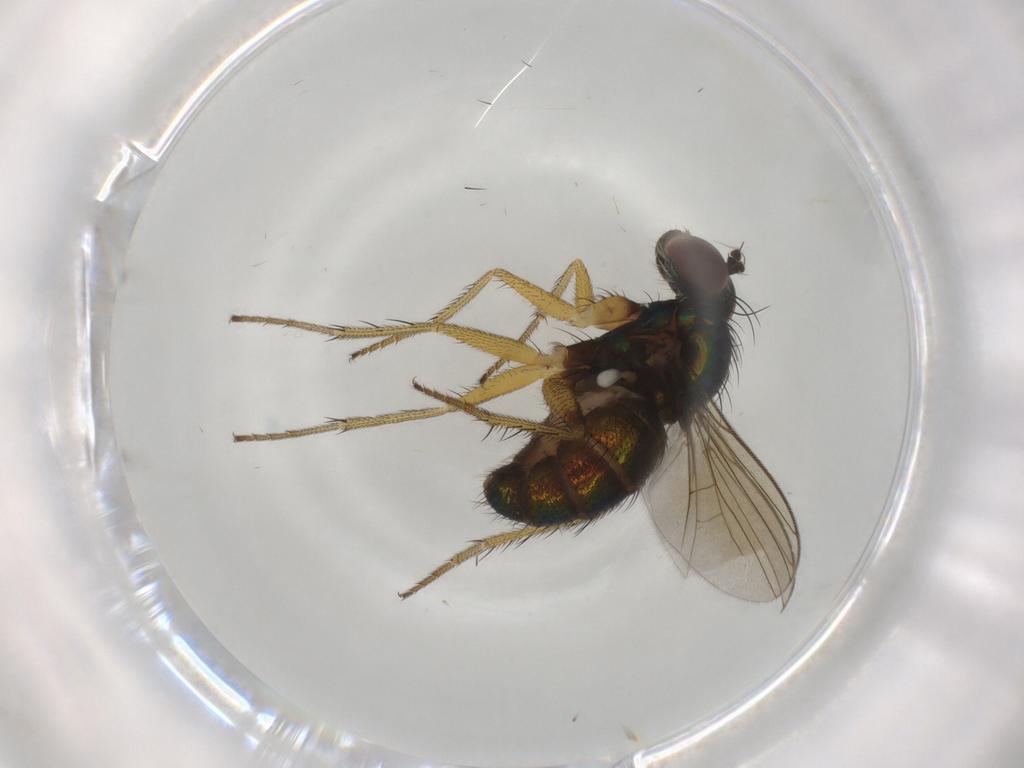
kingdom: Animalia
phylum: Arthropoda
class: Insecta
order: Diptera
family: Dolichopodidae
